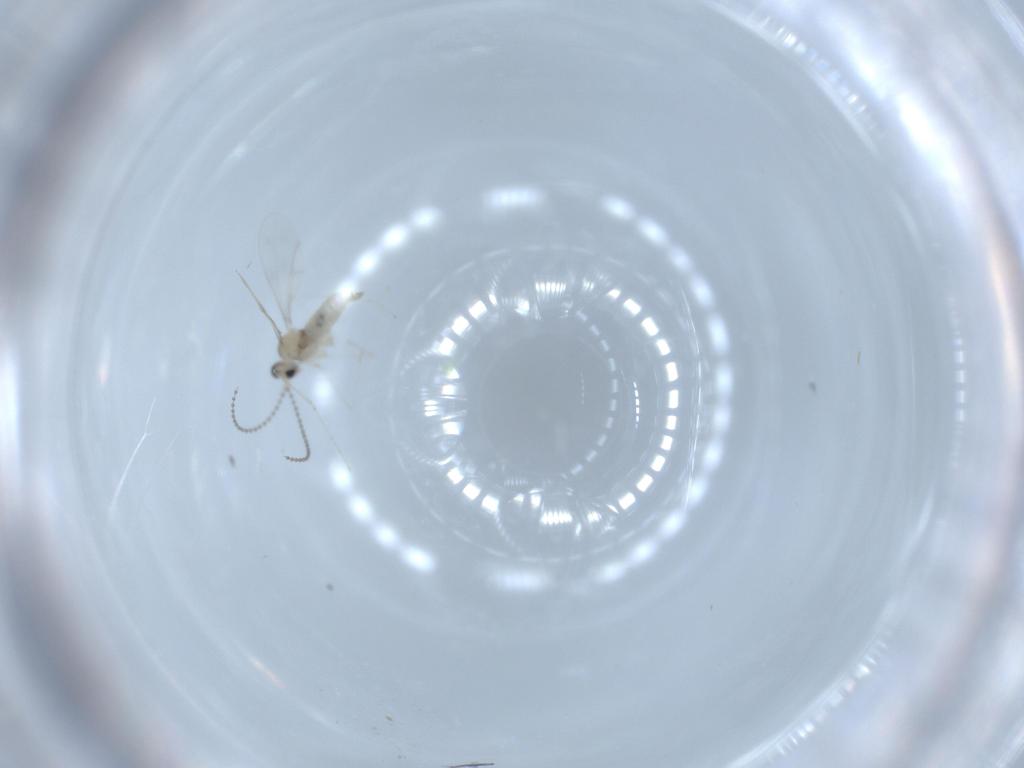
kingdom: Animalia
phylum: Arthropoda
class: Insecta
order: Diptera
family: Cecidomyiidae
